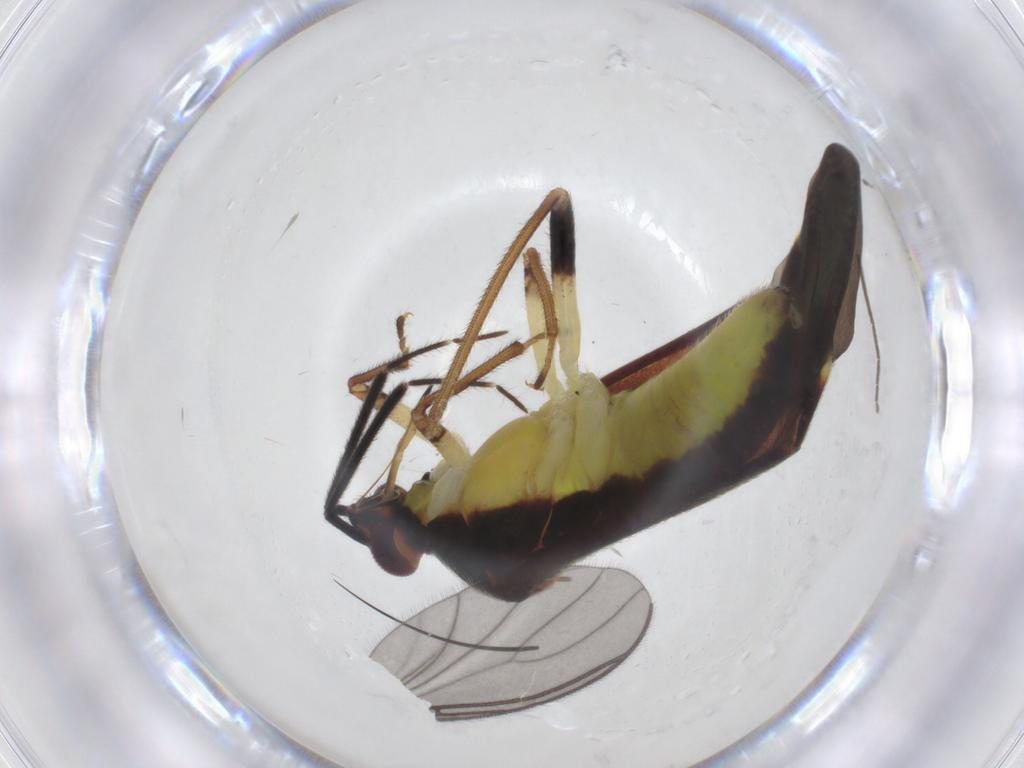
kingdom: Animalia
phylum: Arthropoda
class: Insecta
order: Hemiptera
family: Miridae
